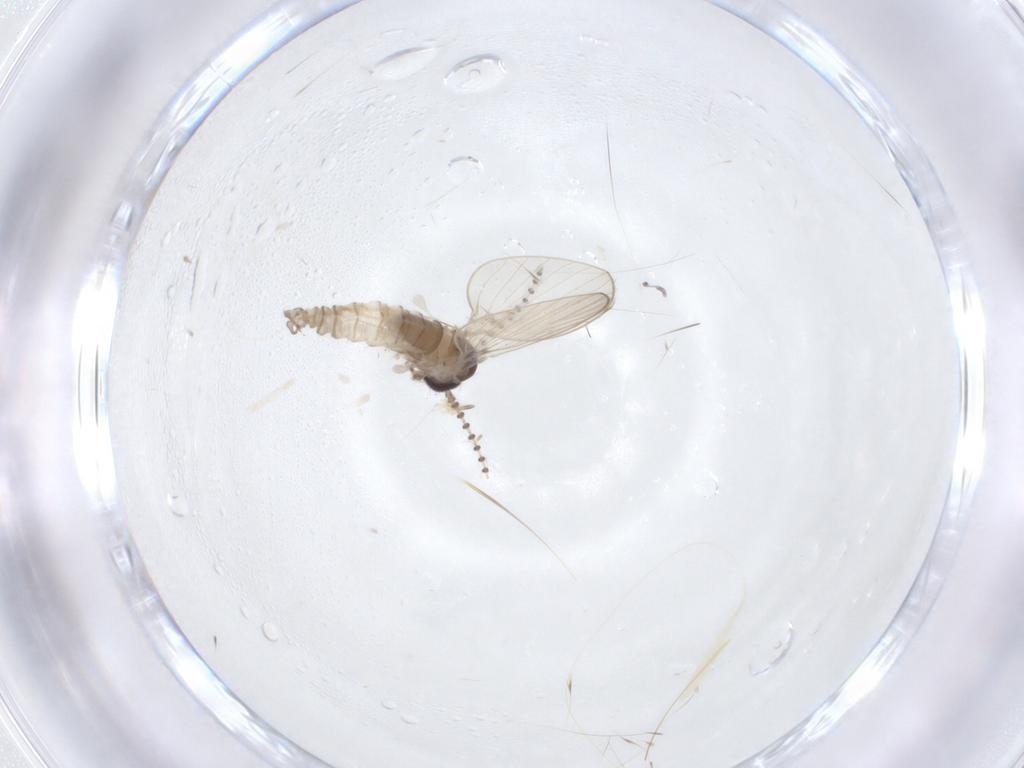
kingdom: Animalia
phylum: Arthropoda
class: Insecta
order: Diptera
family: Psychodidae
